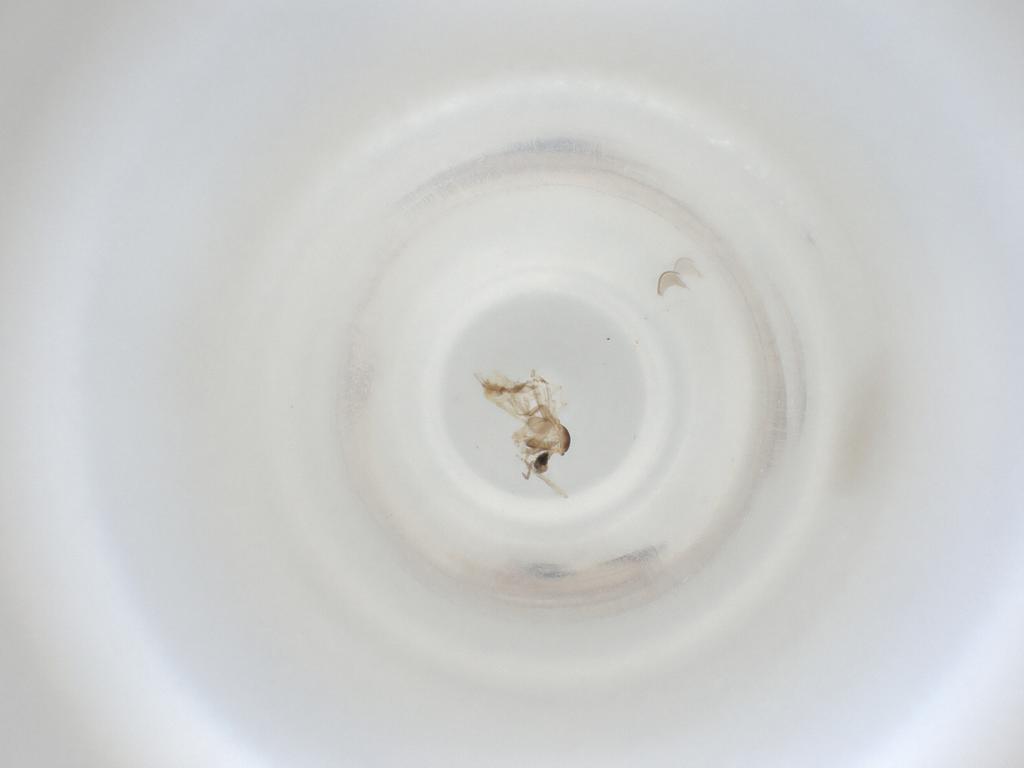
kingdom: Animalia
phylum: Arthropoda
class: Insecta
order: Diptera
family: Cecidomyiidae
